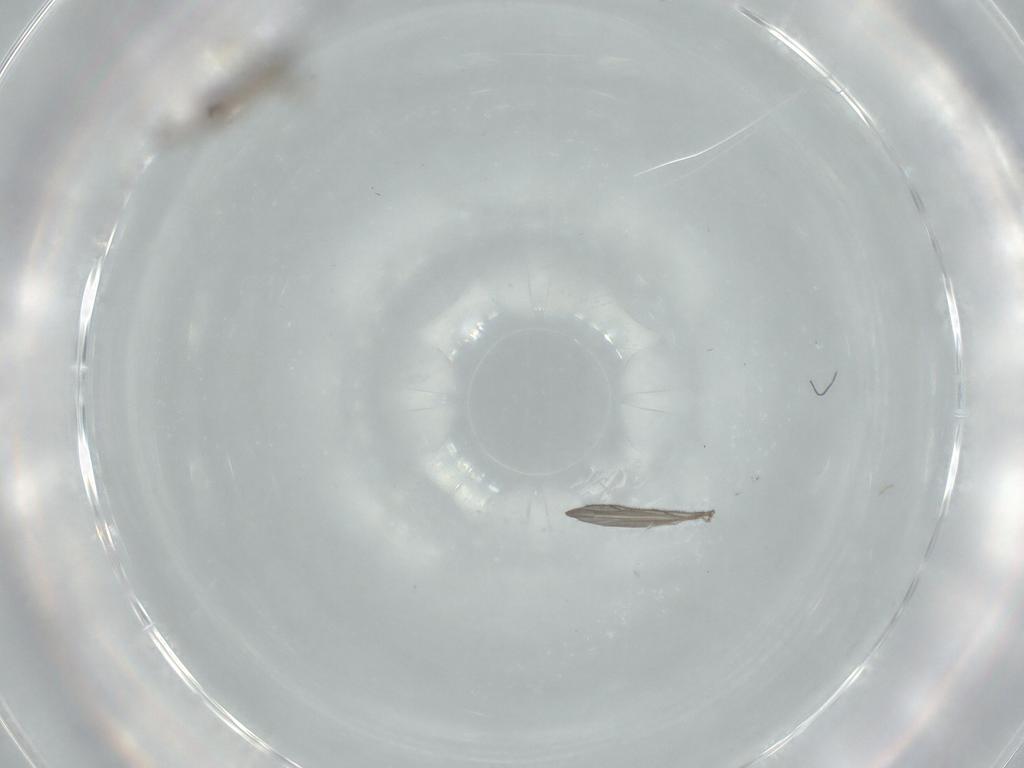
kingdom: Animalia
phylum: Arthropoda
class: Insecta
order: Diptera
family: Sciaridae
